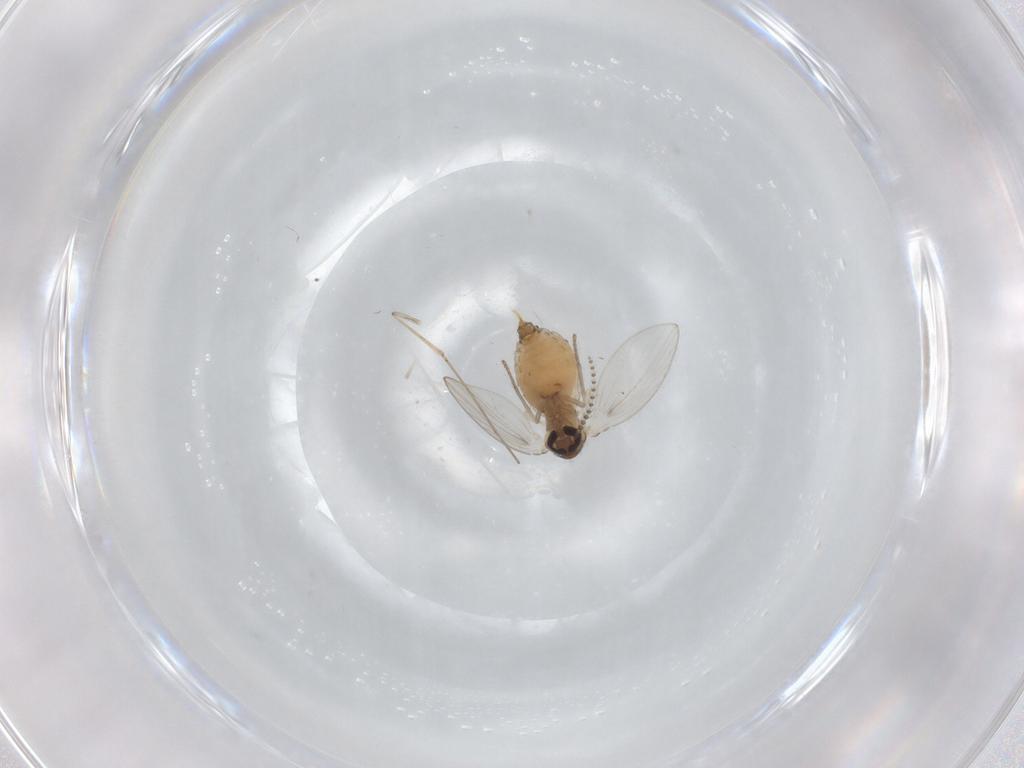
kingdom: Animalia
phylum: Arthropoda
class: Insecta
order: Diptera
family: Psychodidae
